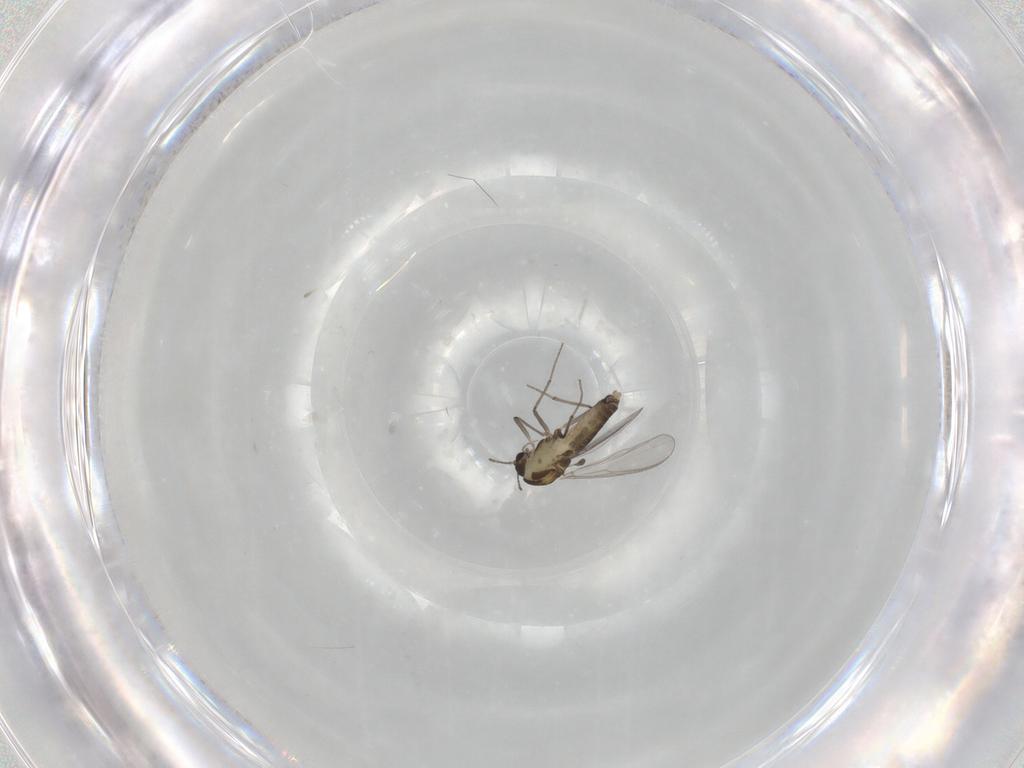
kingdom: Animalia
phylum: Arthropoda
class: Insecta
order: Diptera
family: Chironomidae
